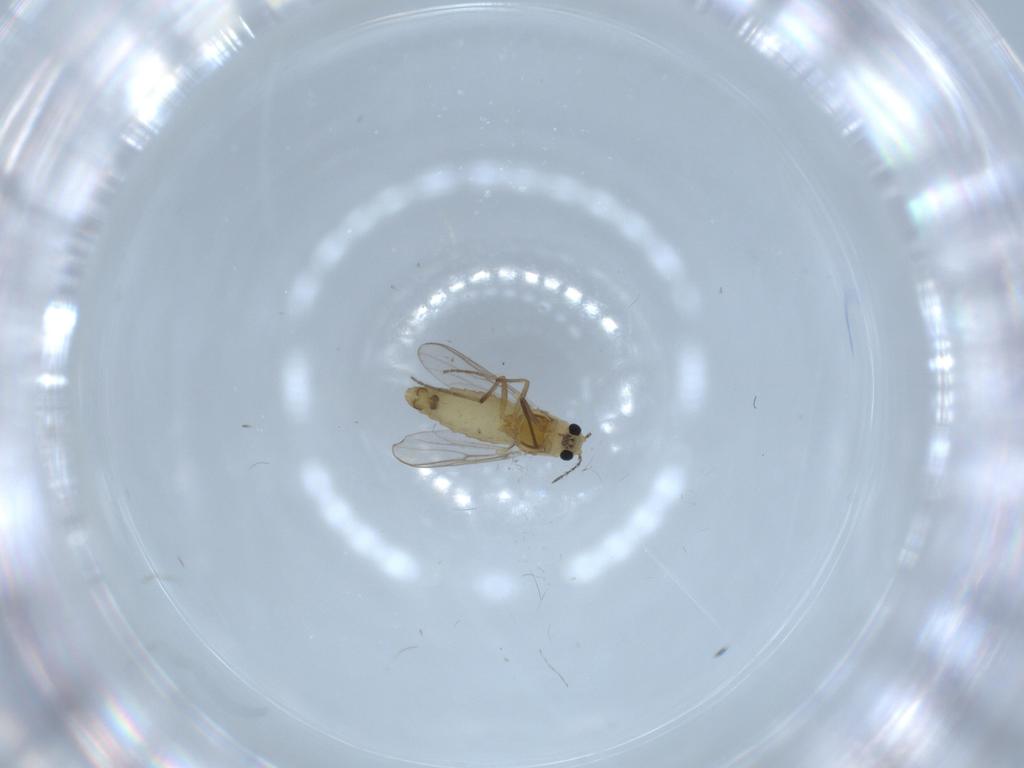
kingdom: Animalia
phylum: Arthropoda
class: Insecta
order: Diptera
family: Chironomidae
